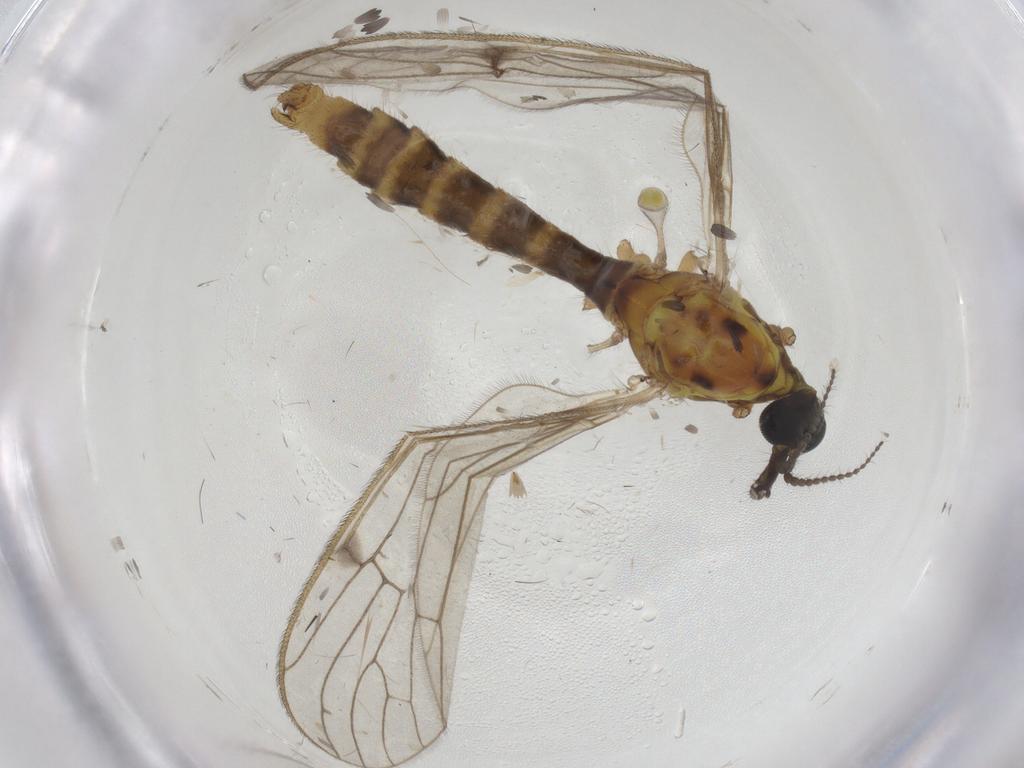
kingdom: Animalia
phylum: Arthropoda
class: Insecta
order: Diptera
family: Limoniidae
